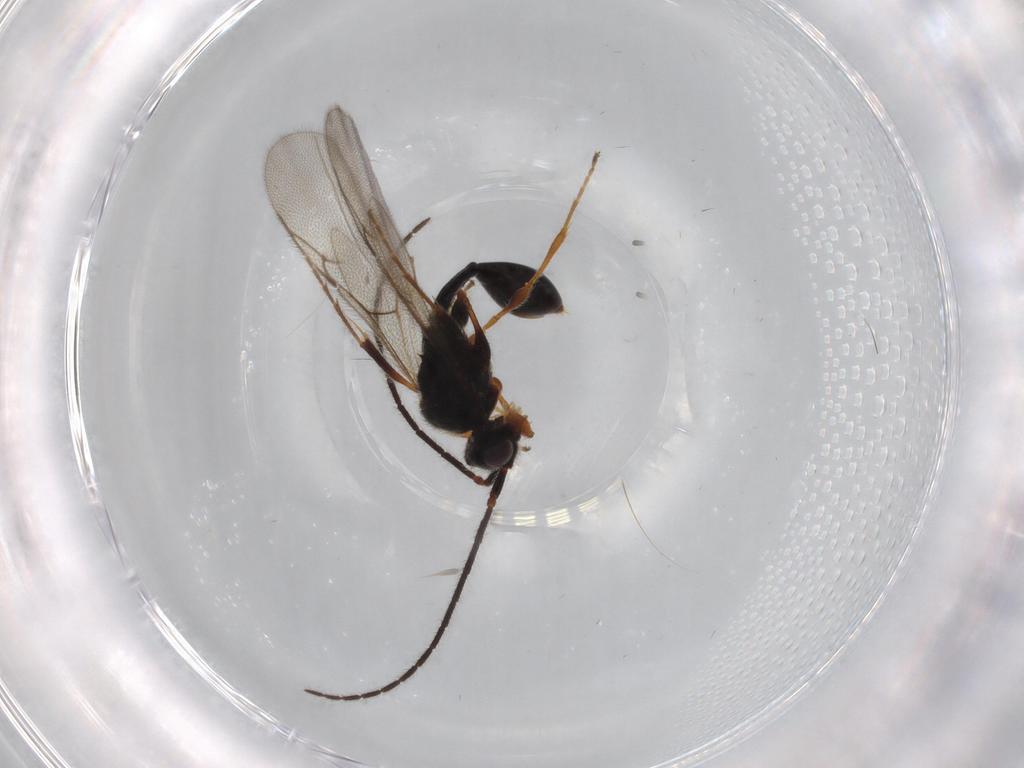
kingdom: Animalia
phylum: Arthropoda
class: Insecta
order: Hymenoptera
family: Diapriidae
